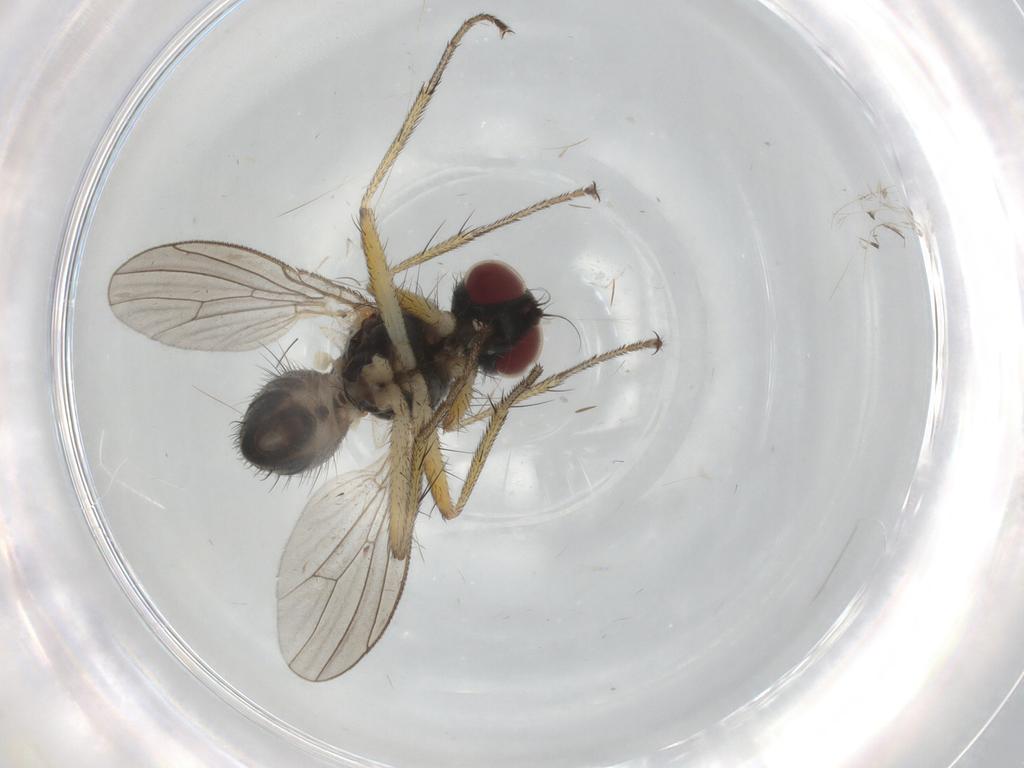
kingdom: Animalia
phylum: Arthropoda
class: Insecta
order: Diptera
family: Muscidae
